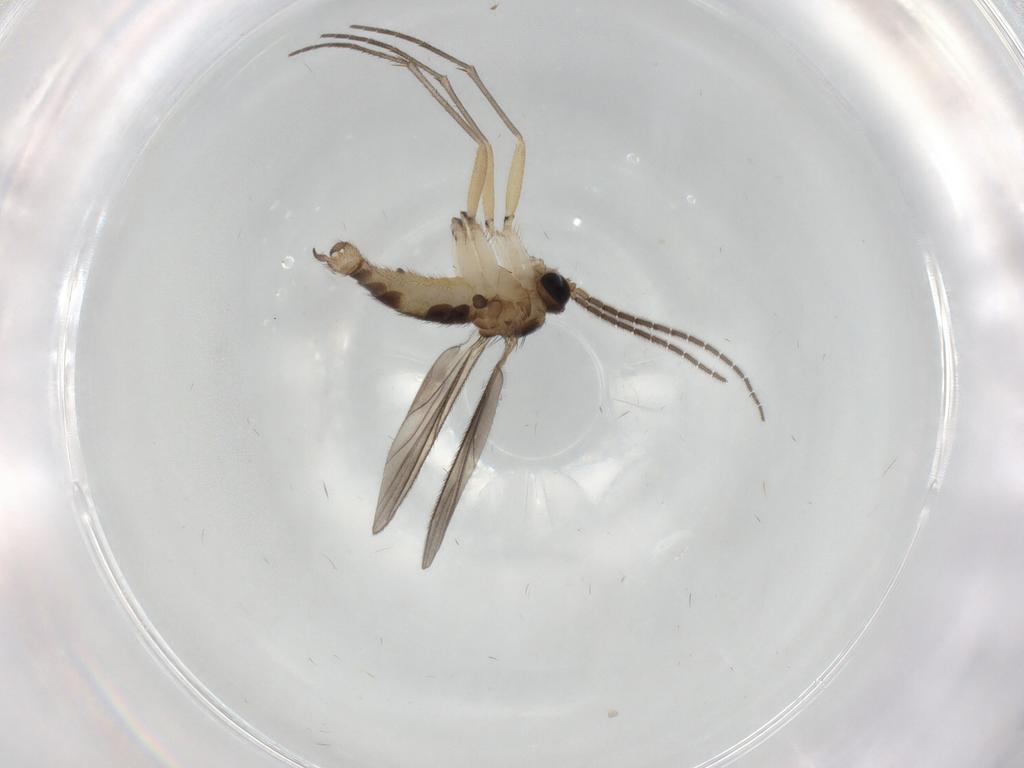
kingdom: Animalia
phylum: Arthropoda
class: Insecta
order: Diptera
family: Sciaridae
